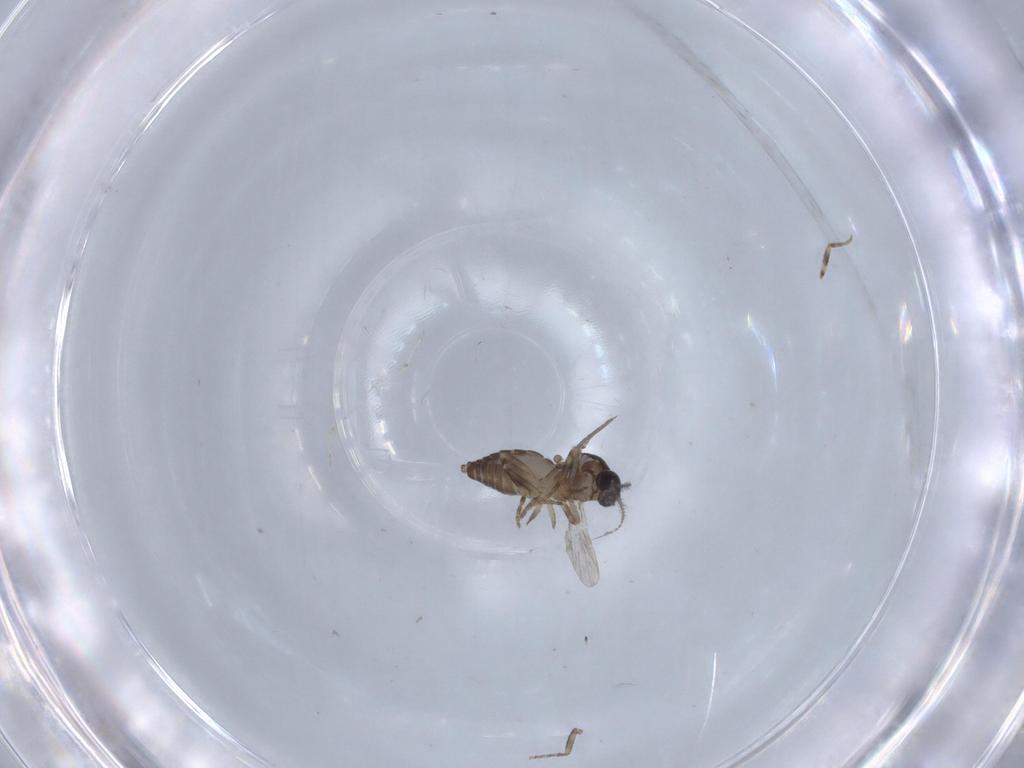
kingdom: Animalia
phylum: Arthropoda
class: Insecta
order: Diptera
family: Ceratopogonidae
